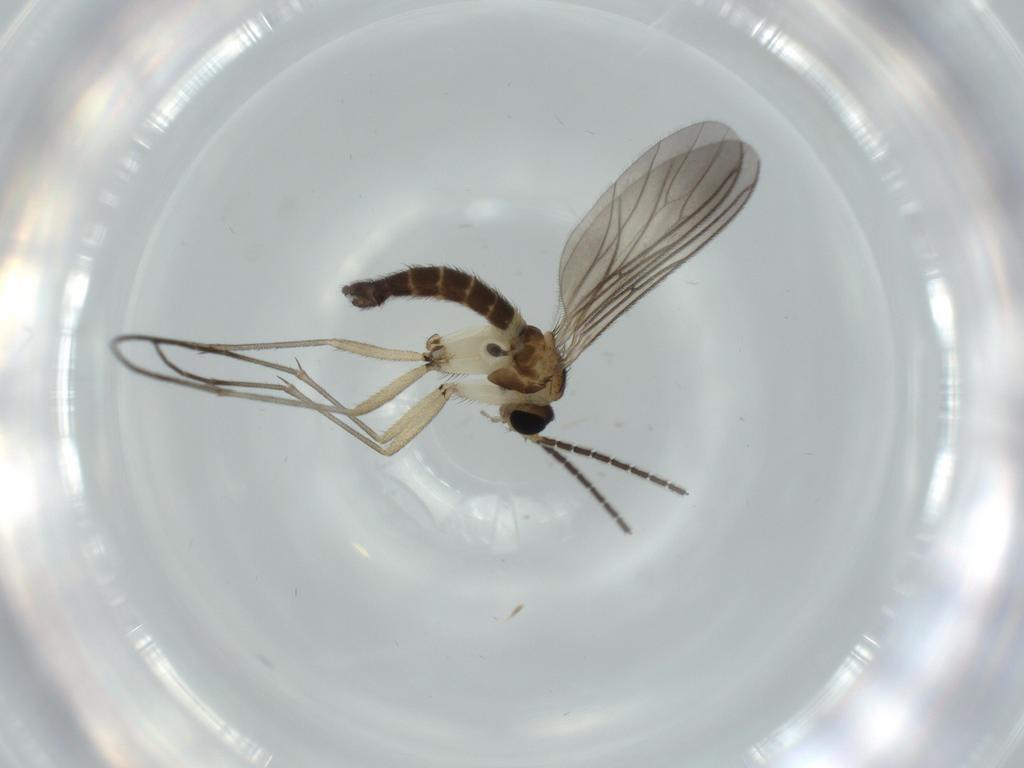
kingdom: Animalia
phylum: Arthropoda
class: Insecta
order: Diptera
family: Sciaridae
